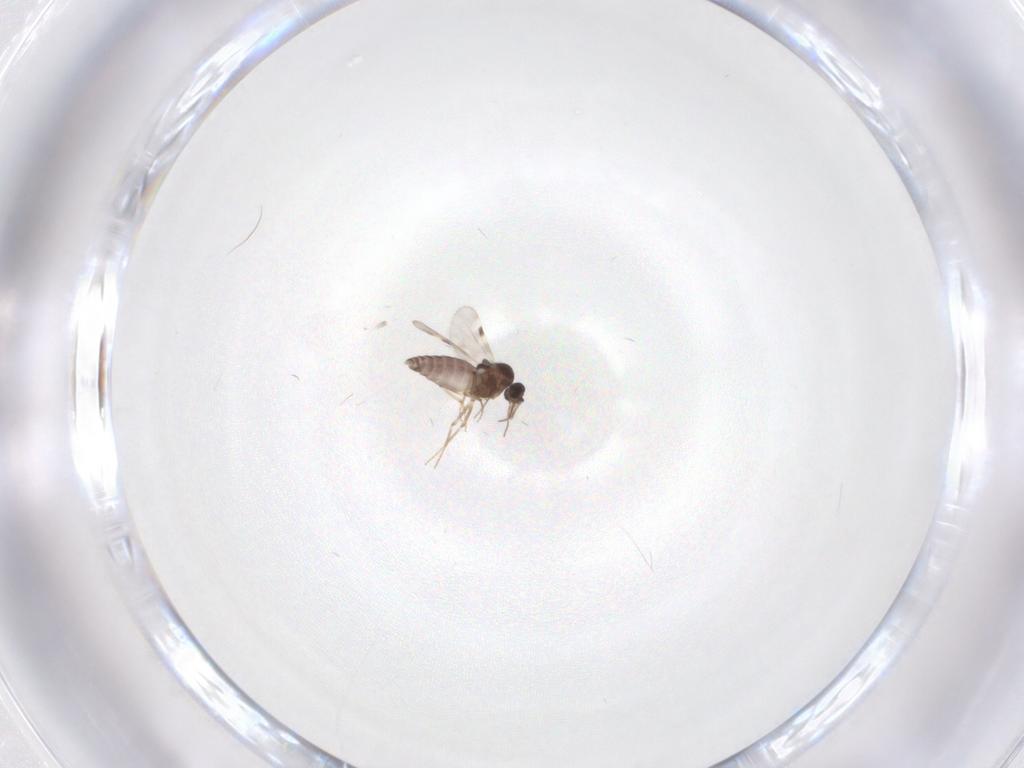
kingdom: Animalia
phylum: Arthropoda
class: Insecta
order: Diptera
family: Ceratopogonidae
